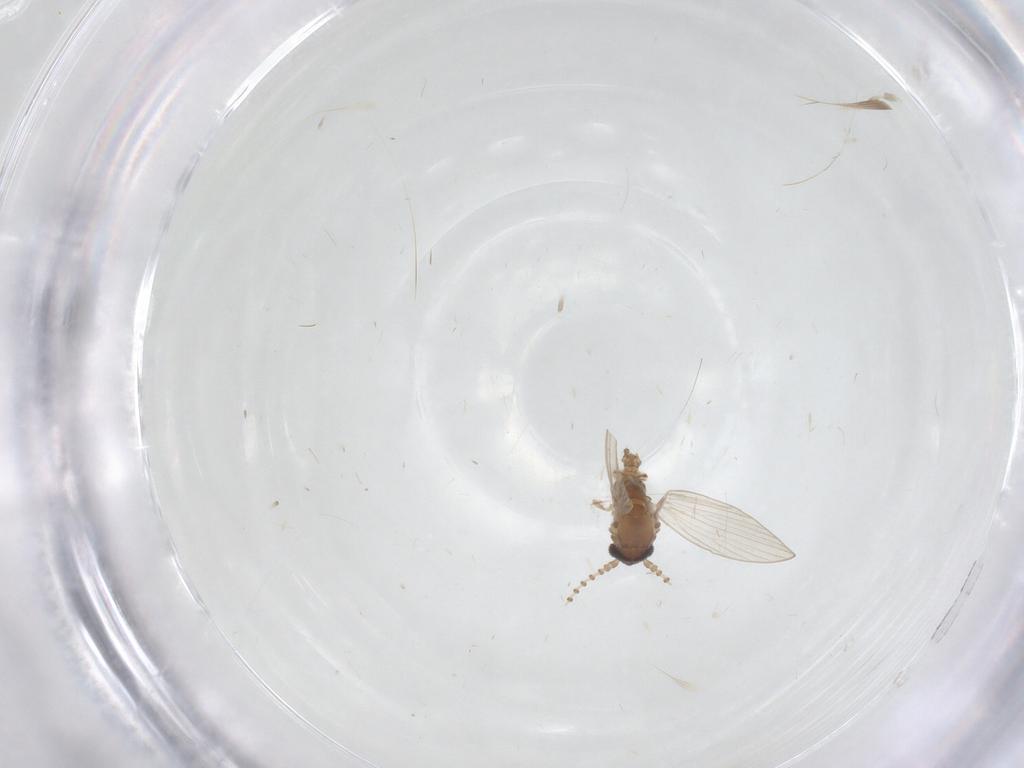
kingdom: Animalia
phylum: Arthropoda
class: Insecta
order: Diptera
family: Psychodidae
